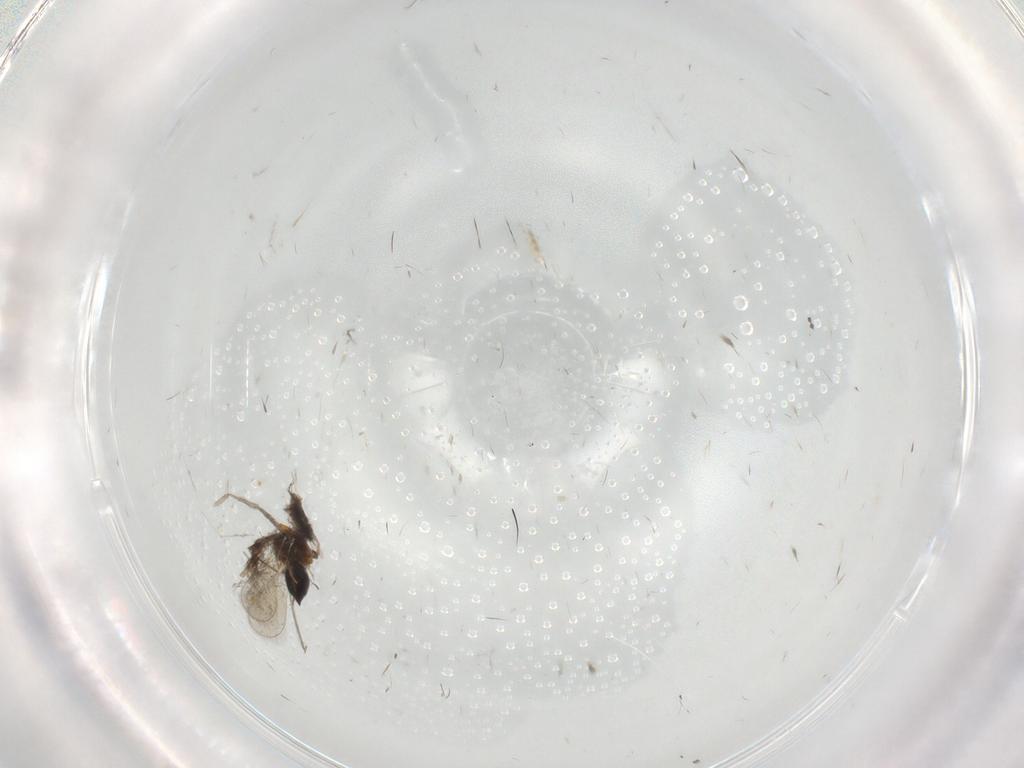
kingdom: Animalia
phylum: Arthropoda
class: Insecta
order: Hymenoptera
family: Platygastridae
